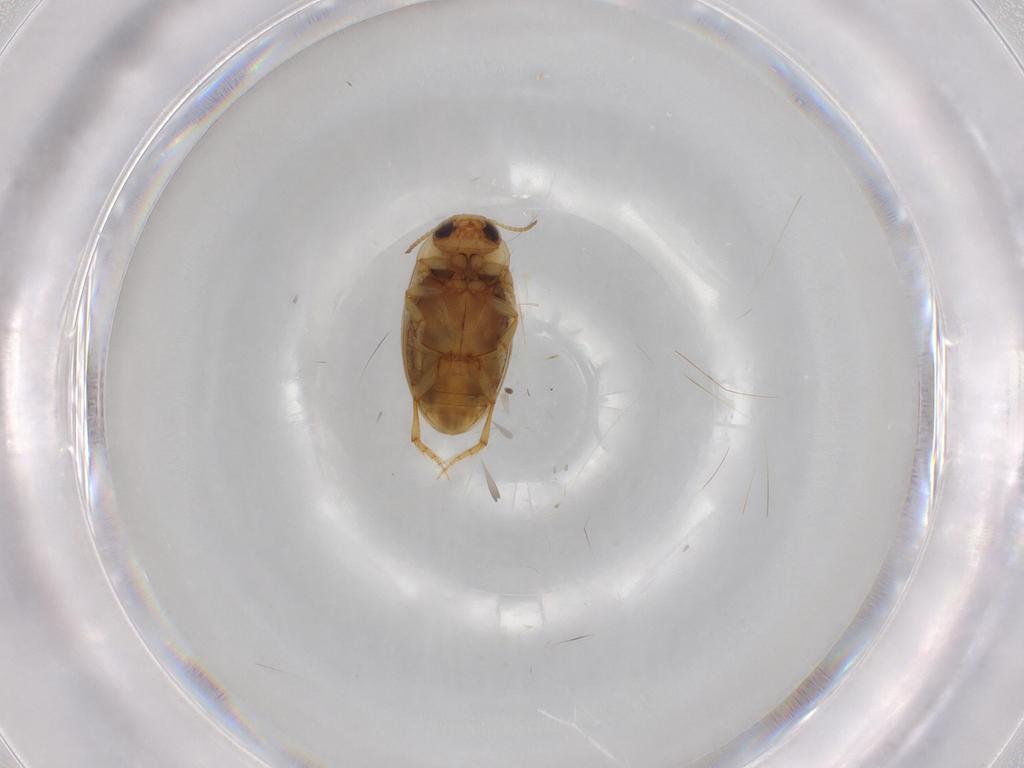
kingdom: Animalia
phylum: Arthropoda
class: Insecta
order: Coleoptera
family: Dytiscidae
